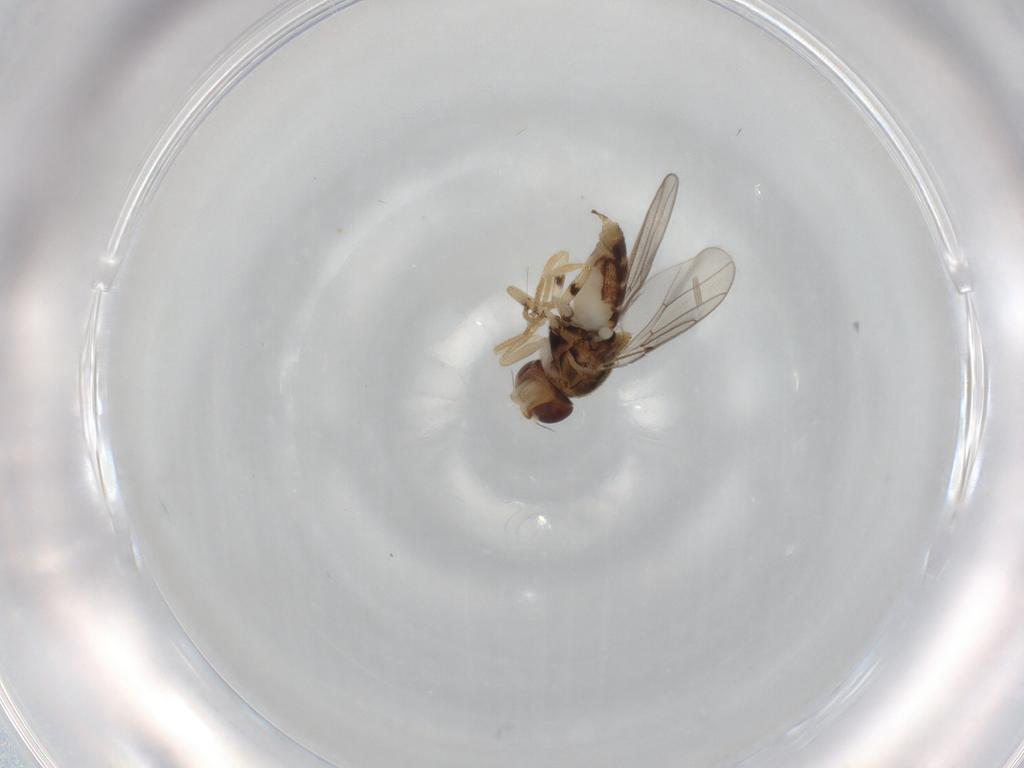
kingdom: Animalia
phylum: Arthropoda
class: Insecta
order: Diptera
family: Chloropidae
